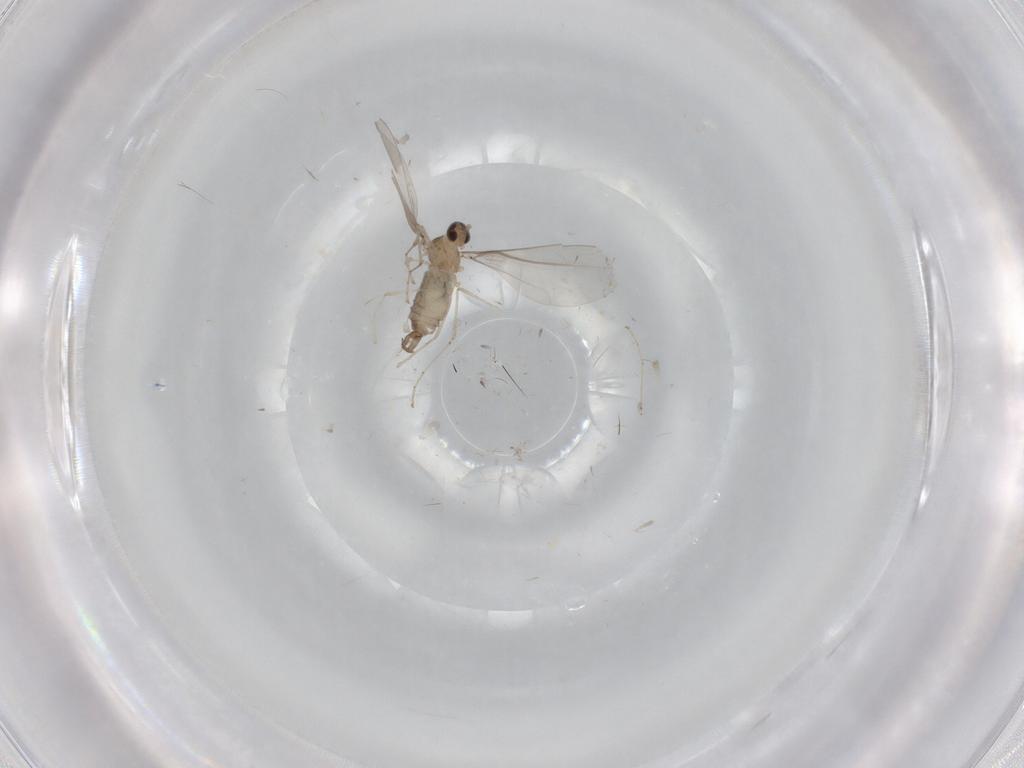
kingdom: Animalia
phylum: Arthropoda
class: Insecta
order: Diptera
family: Cecidomyiidae
